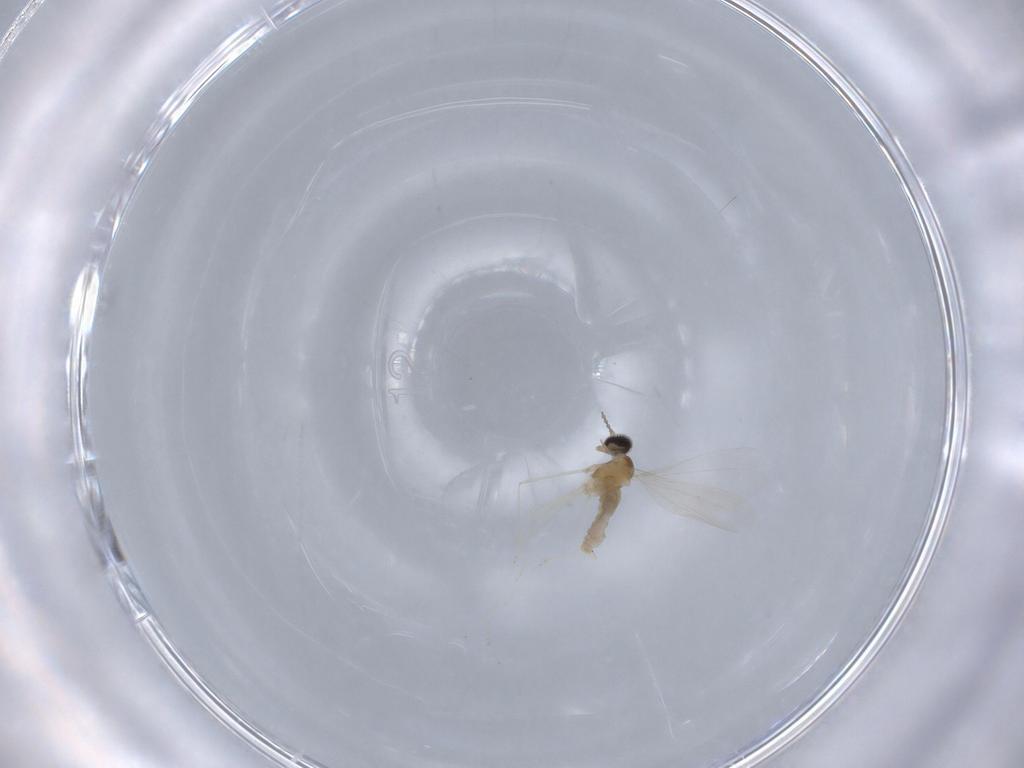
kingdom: Animalia
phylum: Arthropoda
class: Insecta
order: Diptera
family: Cecidomyiidae
